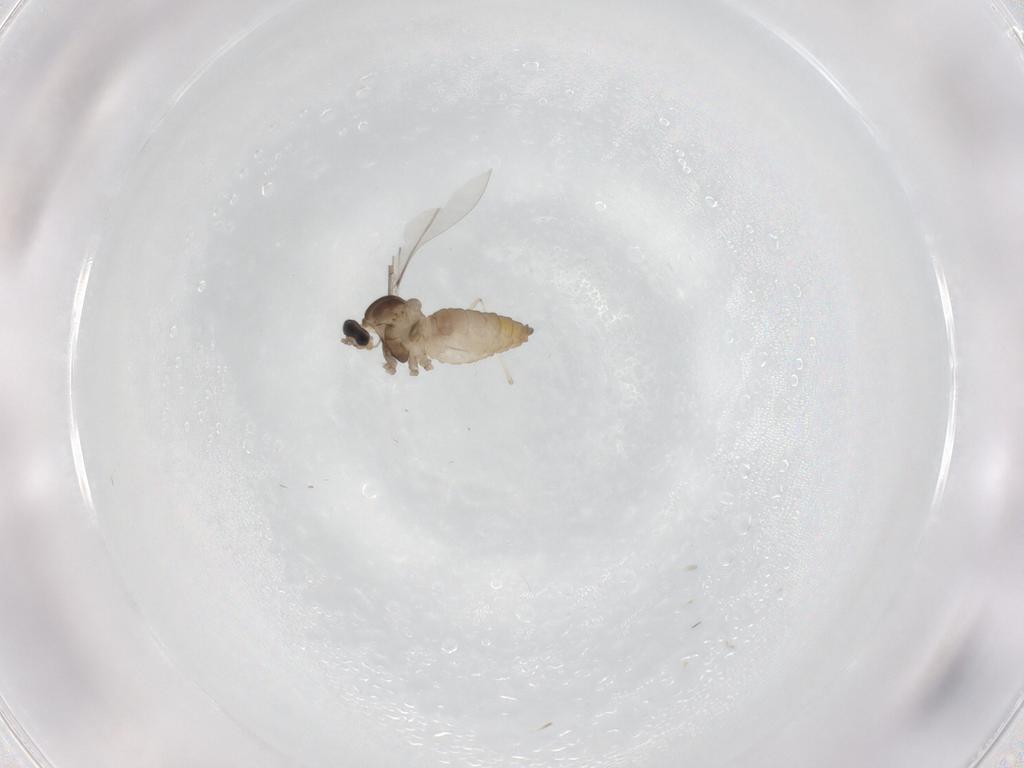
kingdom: Animalia
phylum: Arthropoda
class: Insecta
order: Diptera
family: Cecidomyiidae
